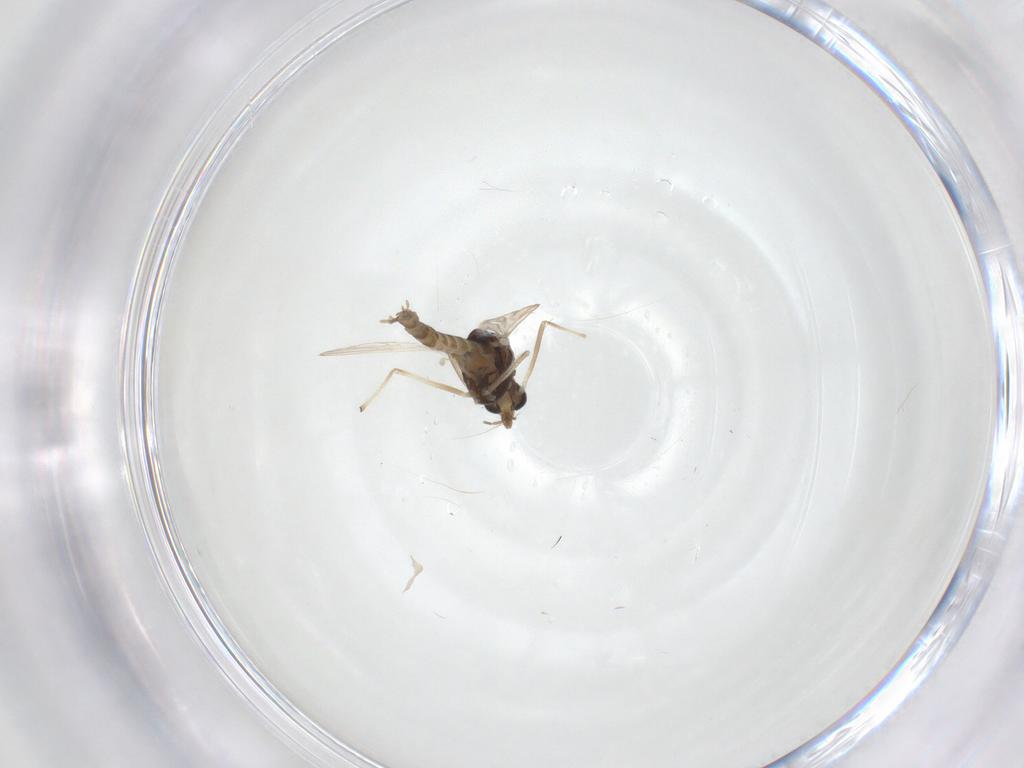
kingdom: Animalia
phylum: Arthropoda
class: Insecta
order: Diptera
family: Chironomidae
